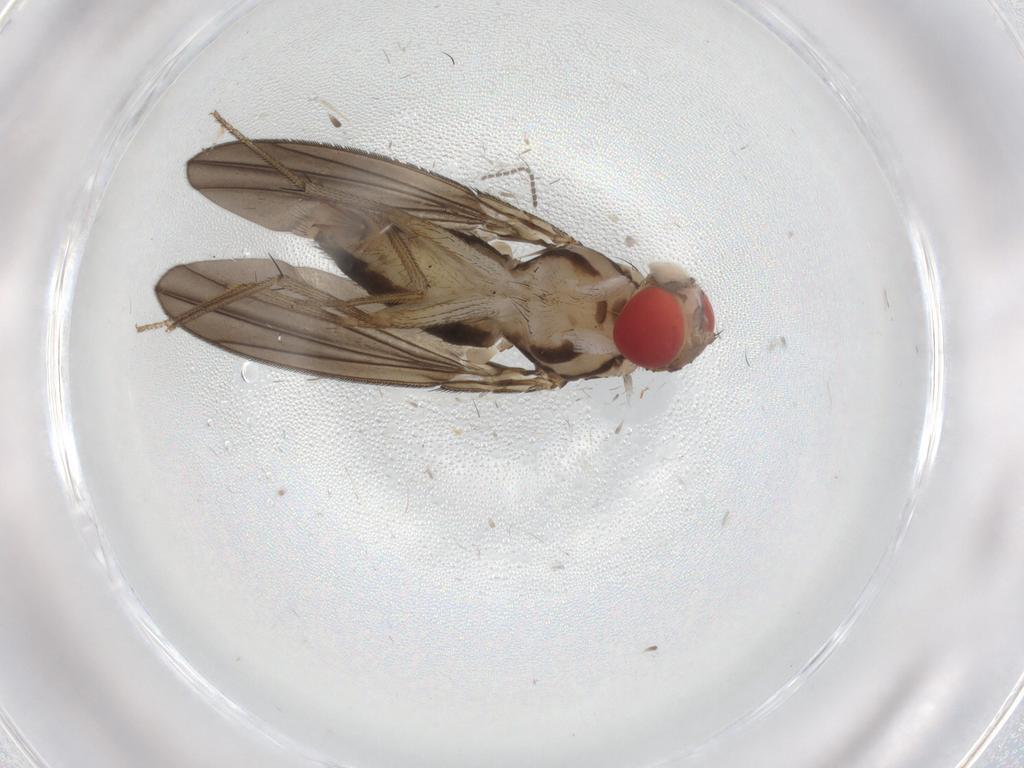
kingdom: Animalia
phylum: Arthropoda
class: Insecta
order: Diptera
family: Drosophilidae
